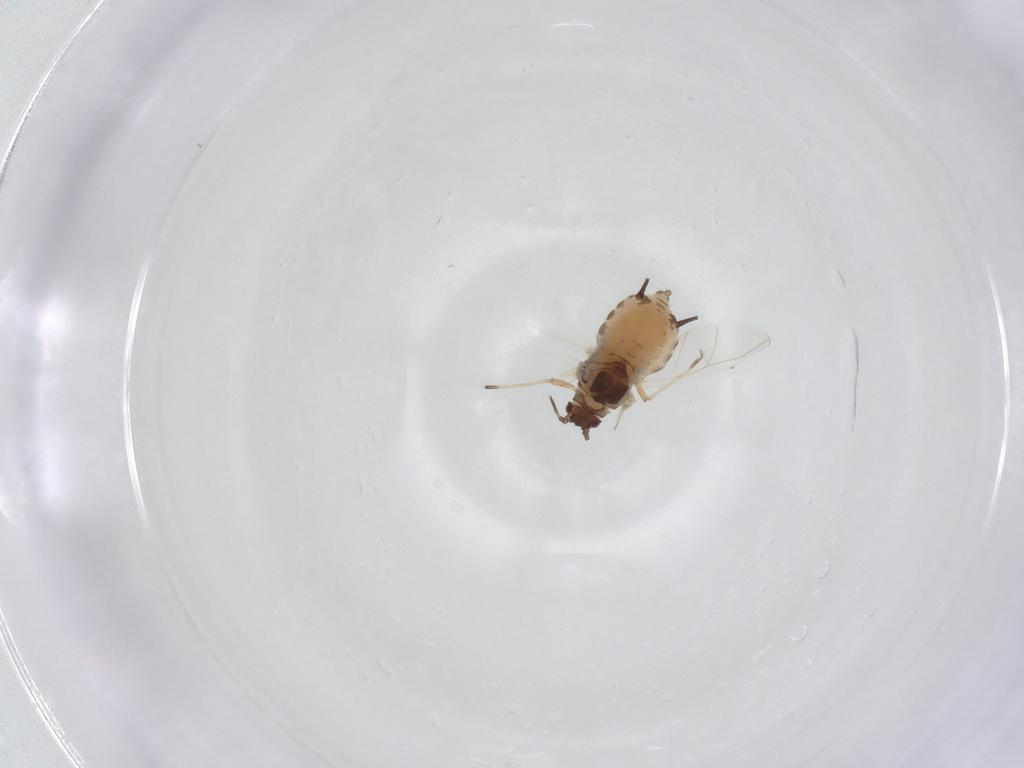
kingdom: Animalia
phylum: Arthropoda
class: Insecta
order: Hemiptera
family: Aphididae
